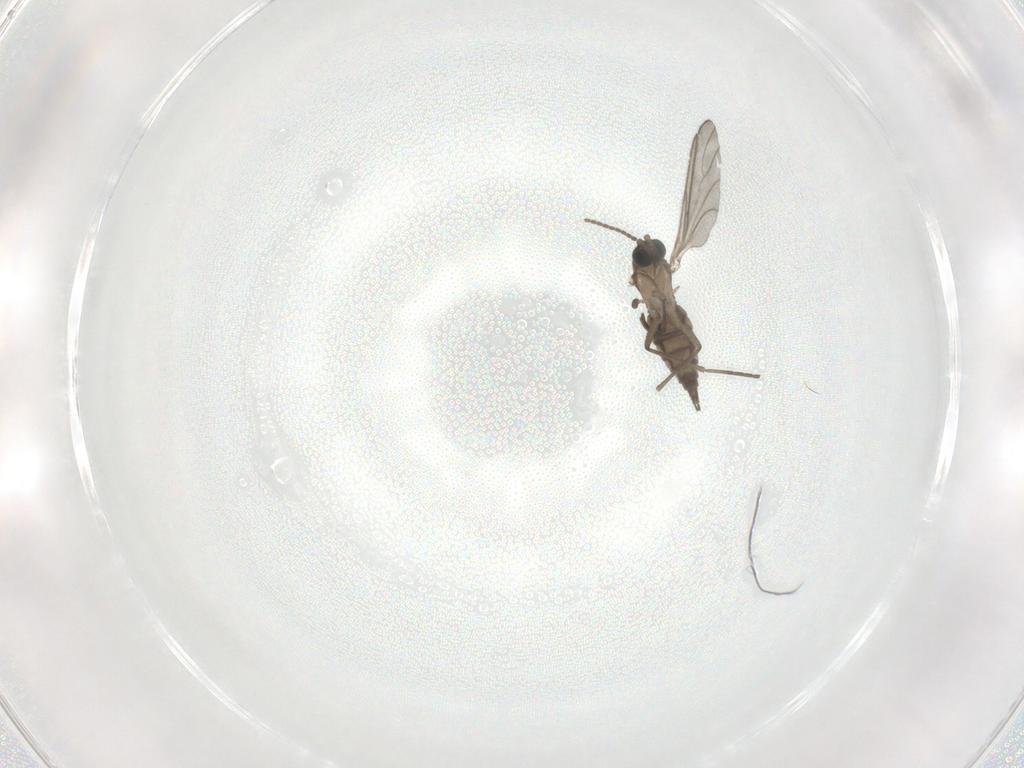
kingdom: Animalia
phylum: Arthropoda
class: Insecta
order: Diptera
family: Sciaridae
